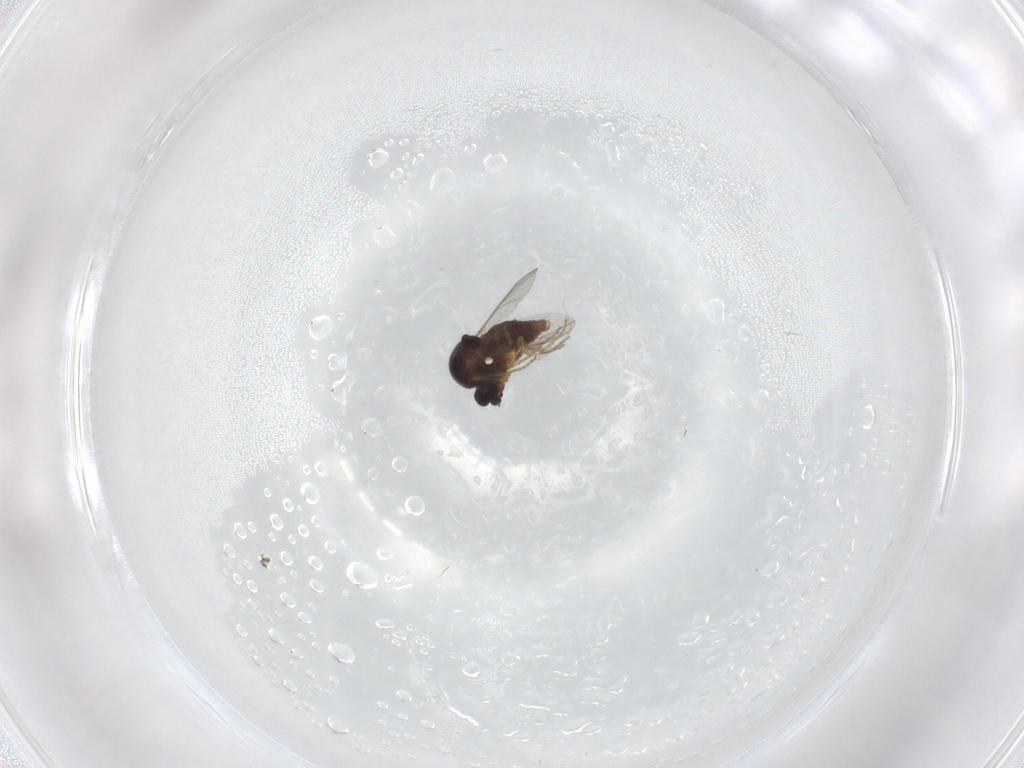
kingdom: Animalia
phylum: Arthropoda
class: Insecta
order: Diptera
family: Ceratopogonidae
